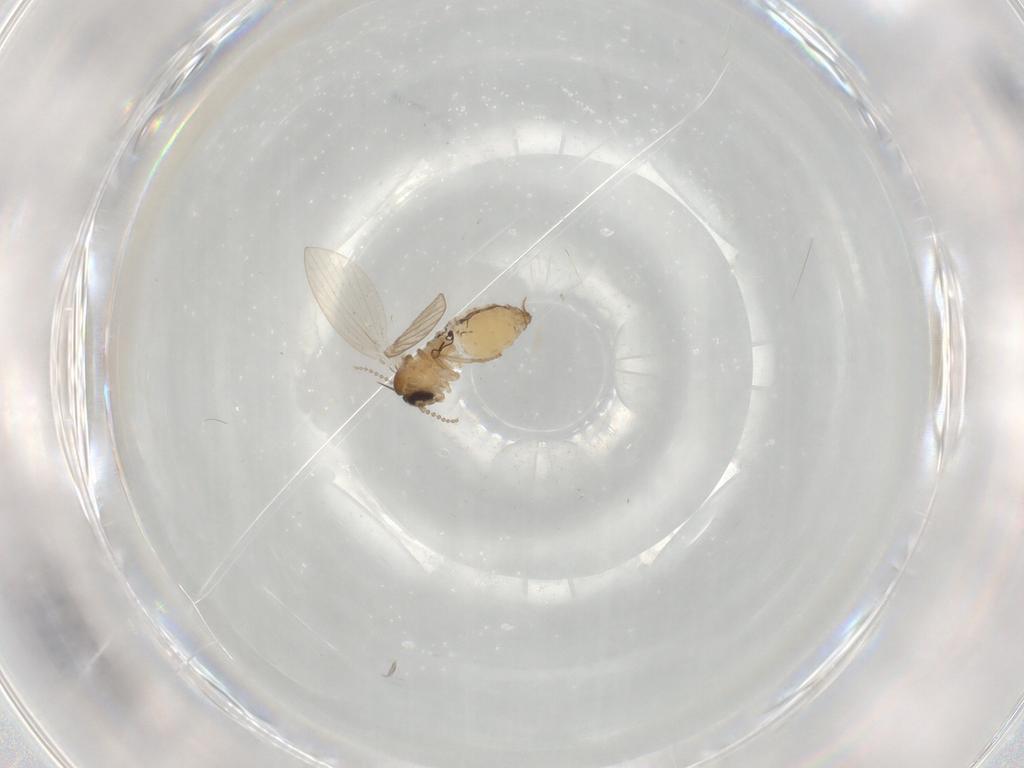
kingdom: Animalia
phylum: Arthropoda
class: Insecta
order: Diptera
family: Psychodidae
